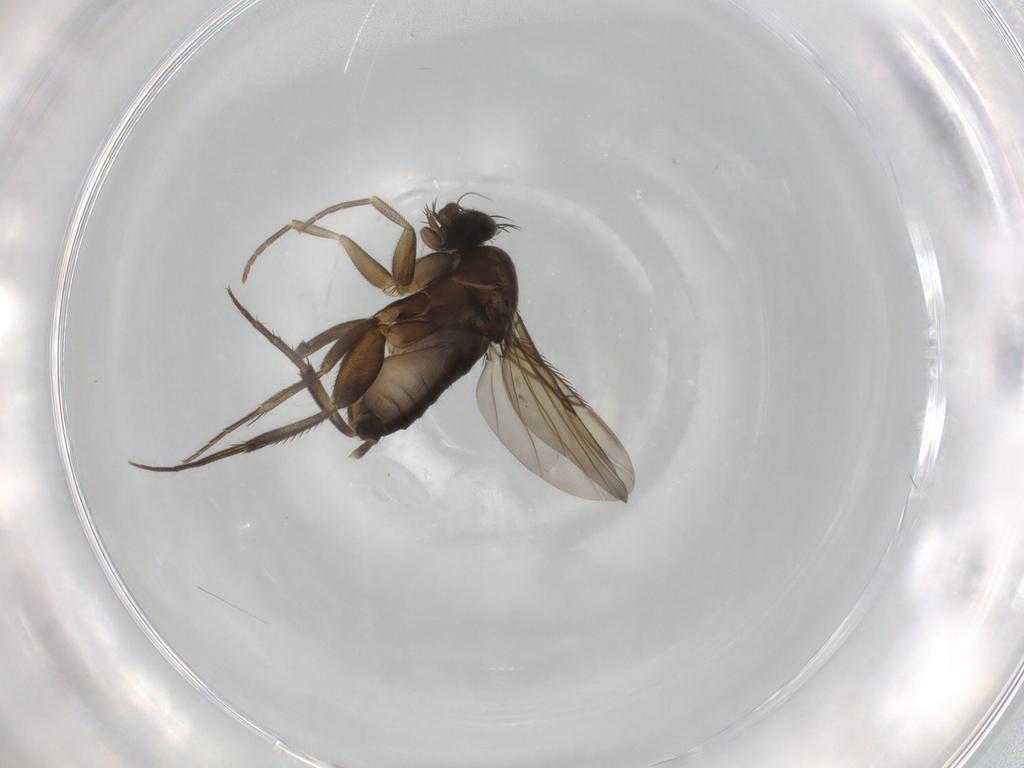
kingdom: Animalia
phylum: Arthropoda
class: Insecta
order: Diptera
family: Phoridae
